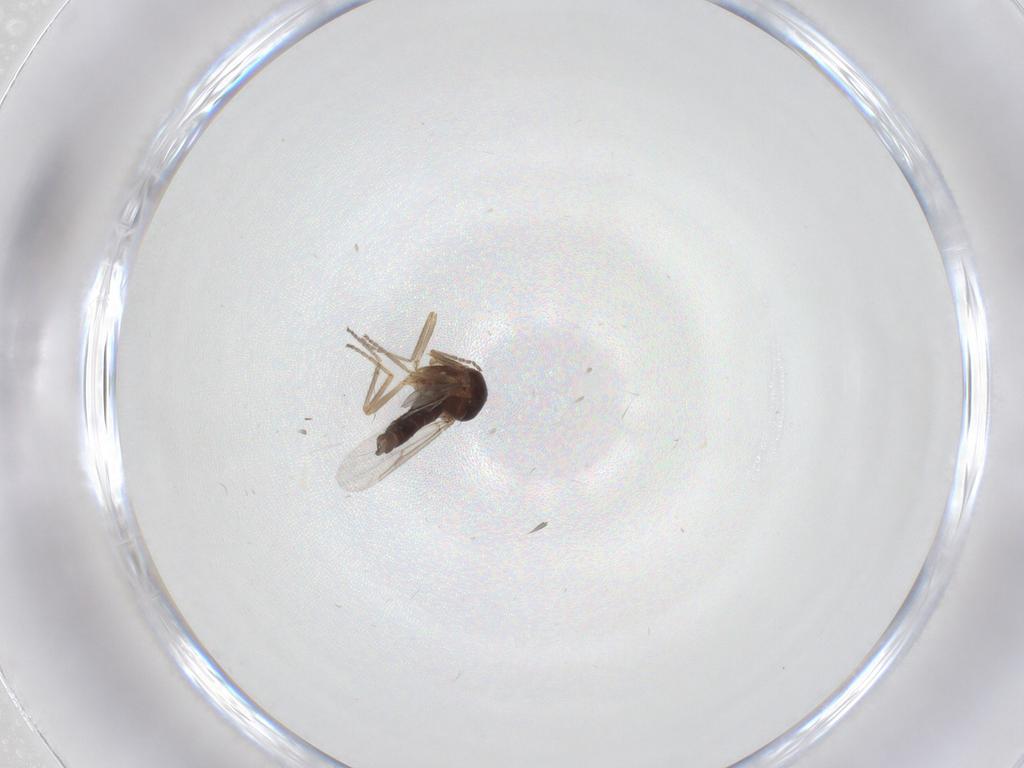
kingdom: Animalia
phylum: Arthropoda
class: Insecta
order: Diptera
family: Ceratopogonidae
